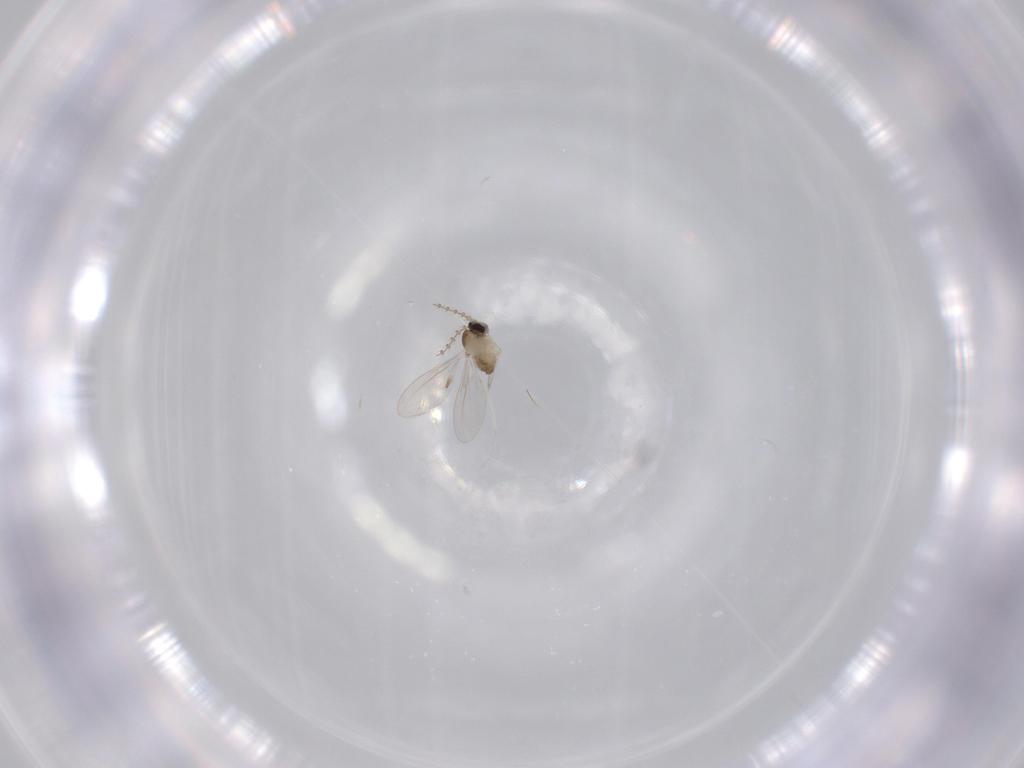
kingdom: Animalia
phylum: Arthropoda
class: Insecta
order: Diptera
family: Cecidomyiidae
